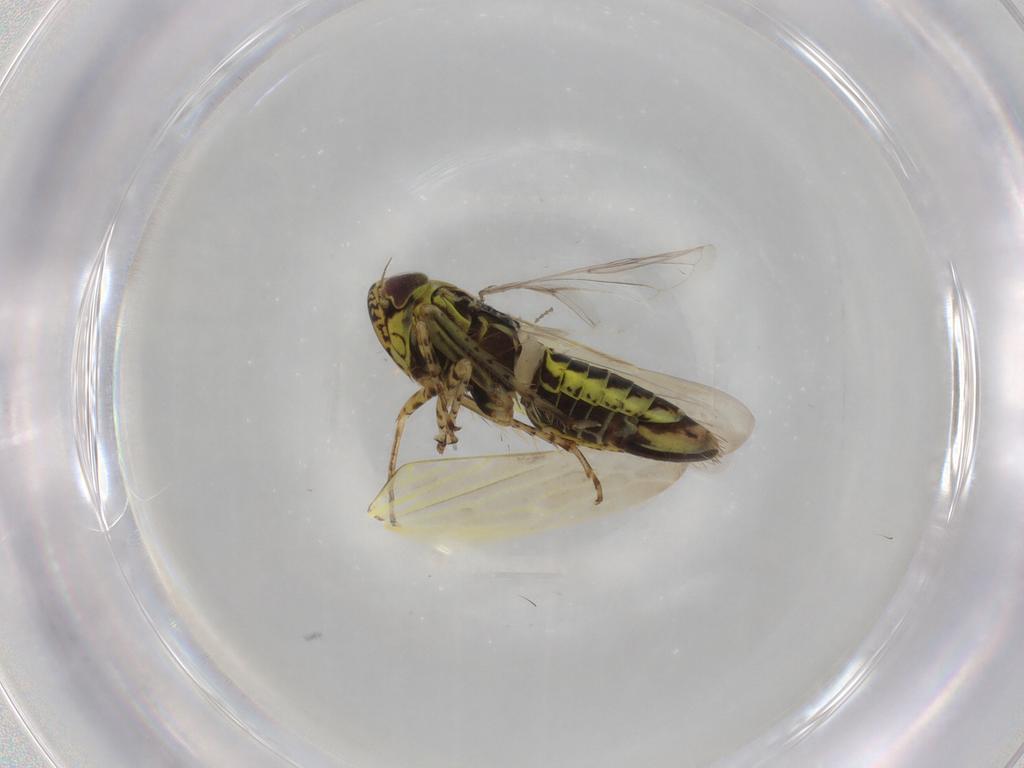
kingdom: Animalia
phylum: Arthropoda
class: Insecta
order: Hemiptera
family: Cicadellidae
